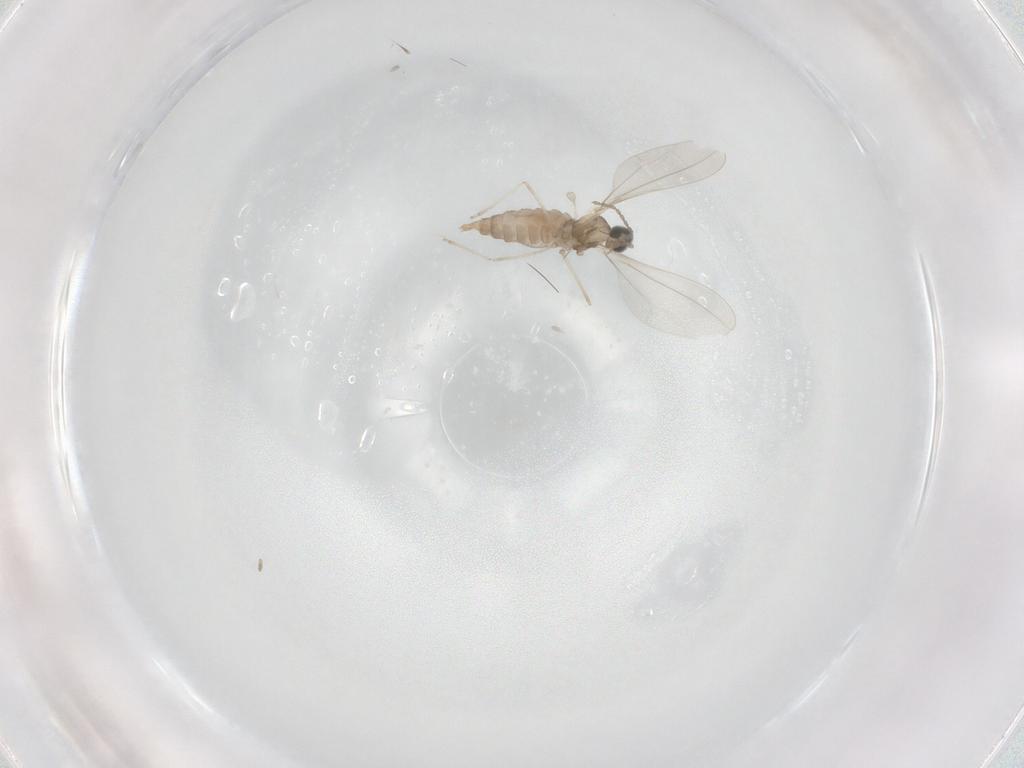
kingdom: Animalia
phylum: Arthropoda
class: Insecta
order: Diptera
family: Cecidomyiidae
